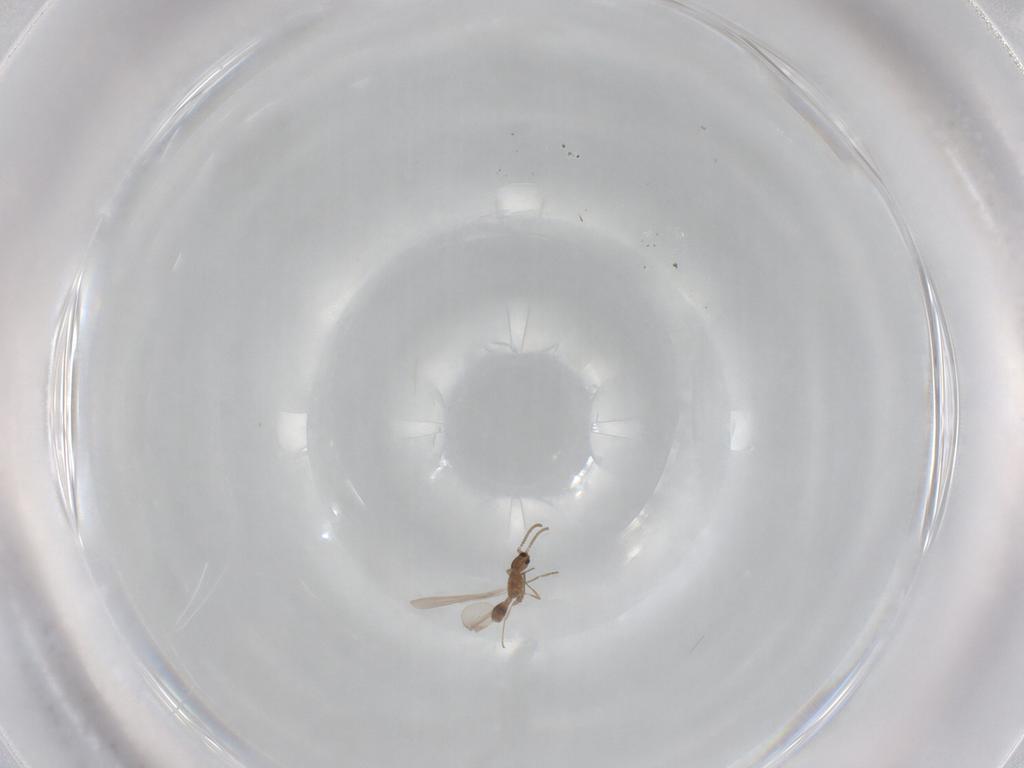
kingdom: Animalia
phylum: Arthropoda
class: Insecta
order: Hymenoptera
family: Formicidae
